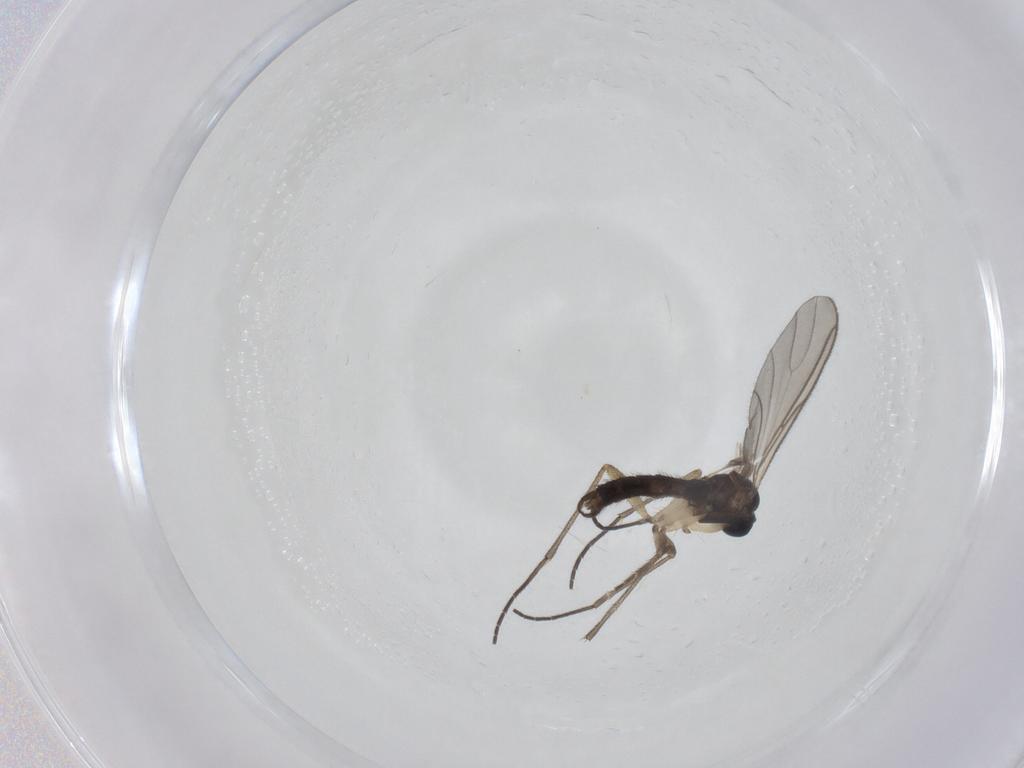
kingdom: Animalia
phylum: Arthropoda
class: Insecta
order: Diptera
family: Sciaridae
